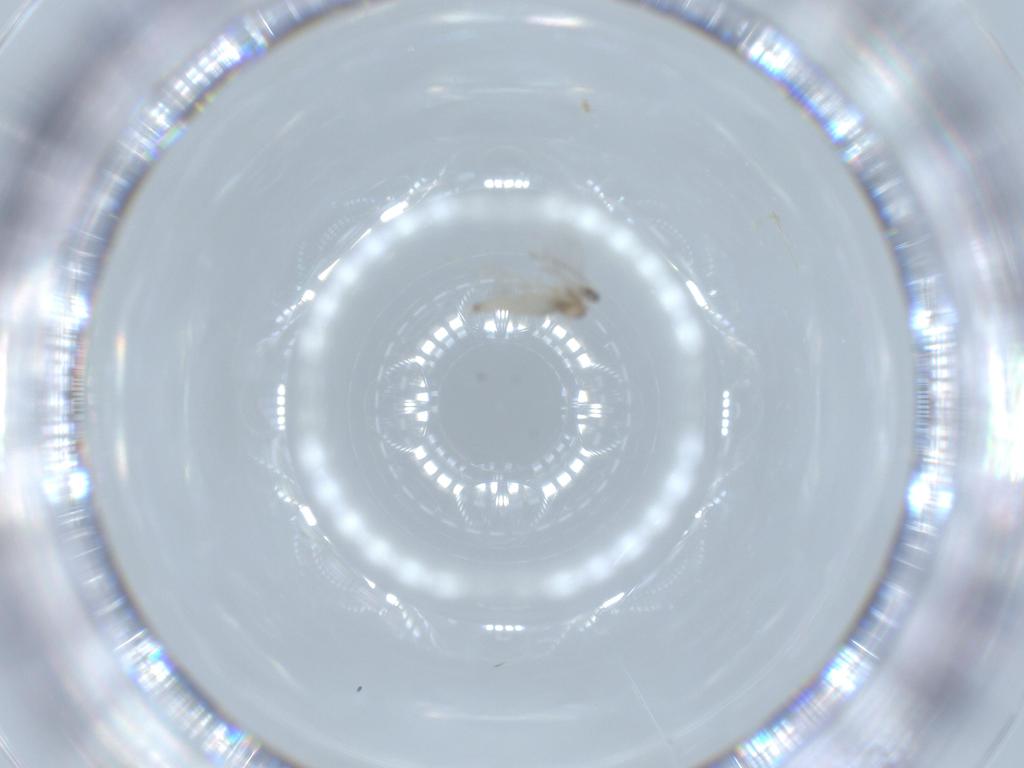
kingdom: Animalia
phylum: Arthropoda
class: Insecta
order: Diptera
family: Cecidomyiidae
